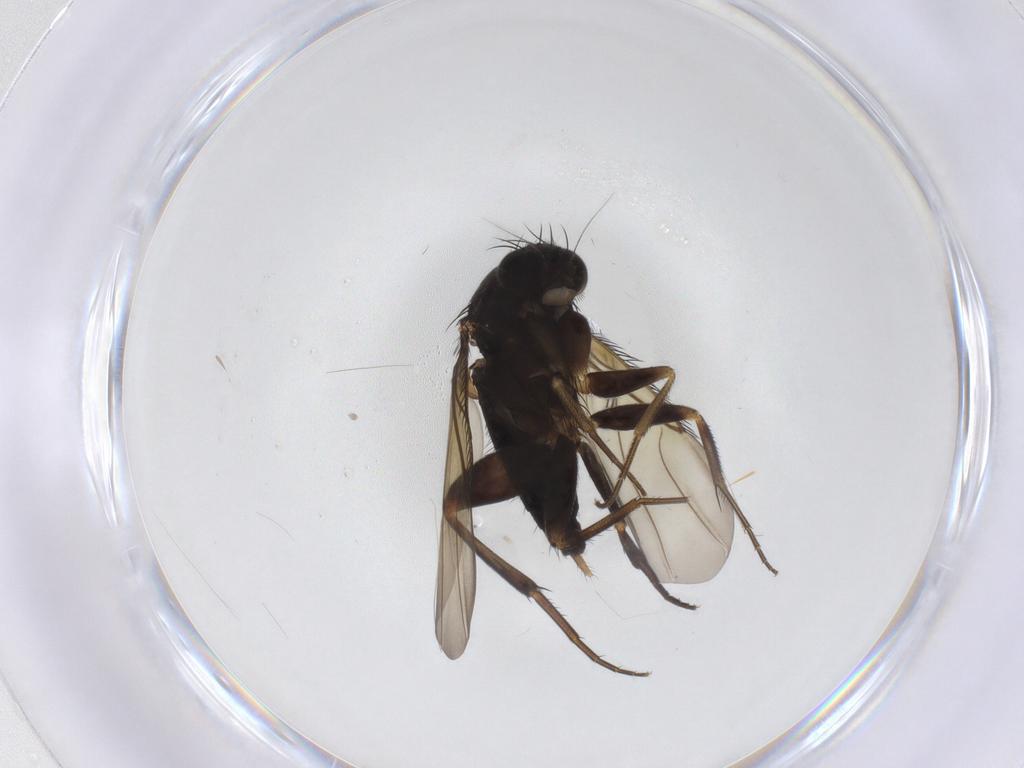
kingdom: Animalia
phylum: Arthropoda
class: Insecta
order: Diptera
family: Phoridae
